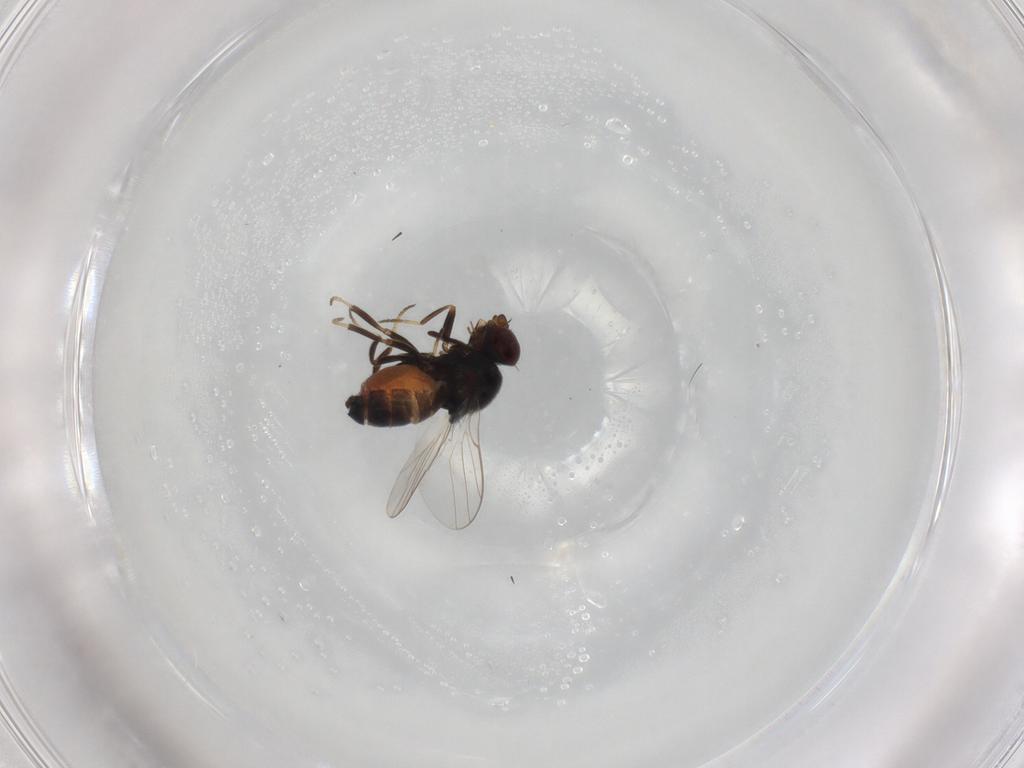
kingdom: Animalia
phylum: Arthropoda
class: Insecta
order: Diptera
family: Chloropidae
